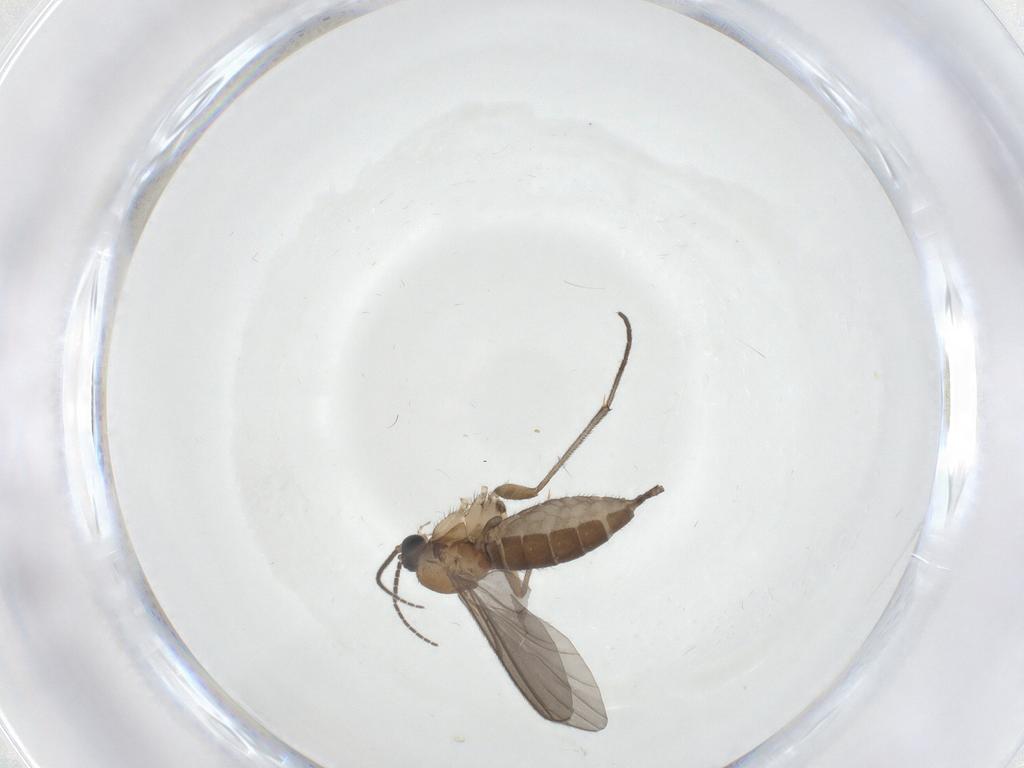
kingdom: Animalia
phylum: Arthropoda
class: Insecta
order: Diptera
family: Sciaridae
